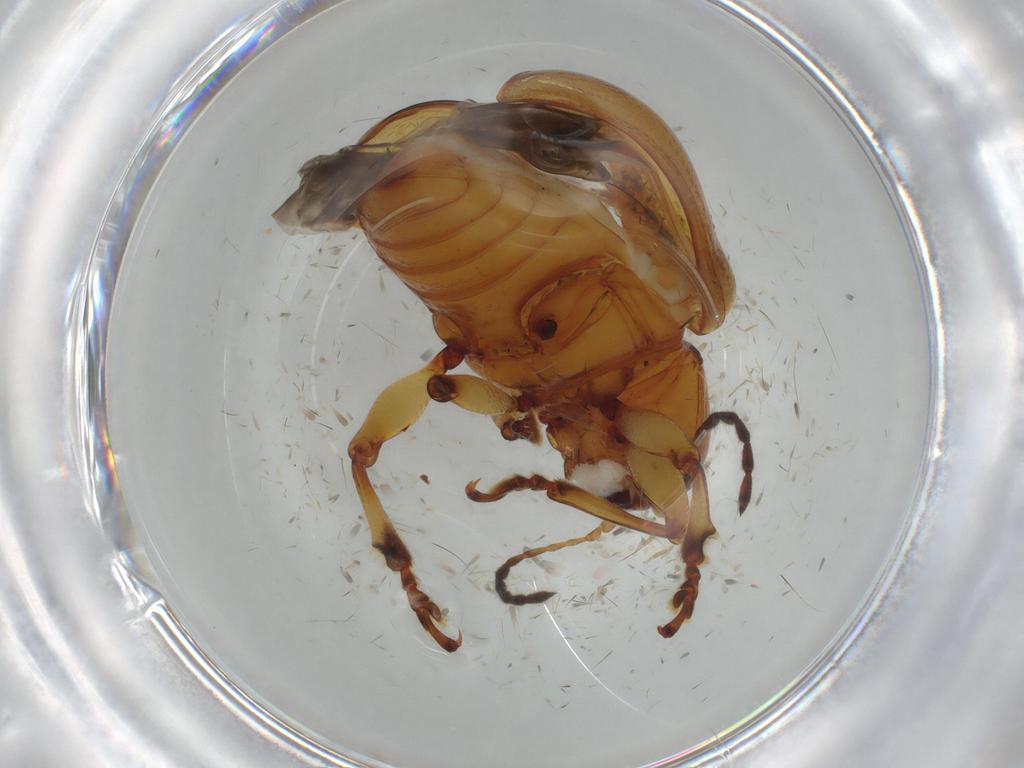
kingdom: Animalia
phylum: Arthropoda
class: Insecta
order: Coleoptera
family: Chrysomelidae
